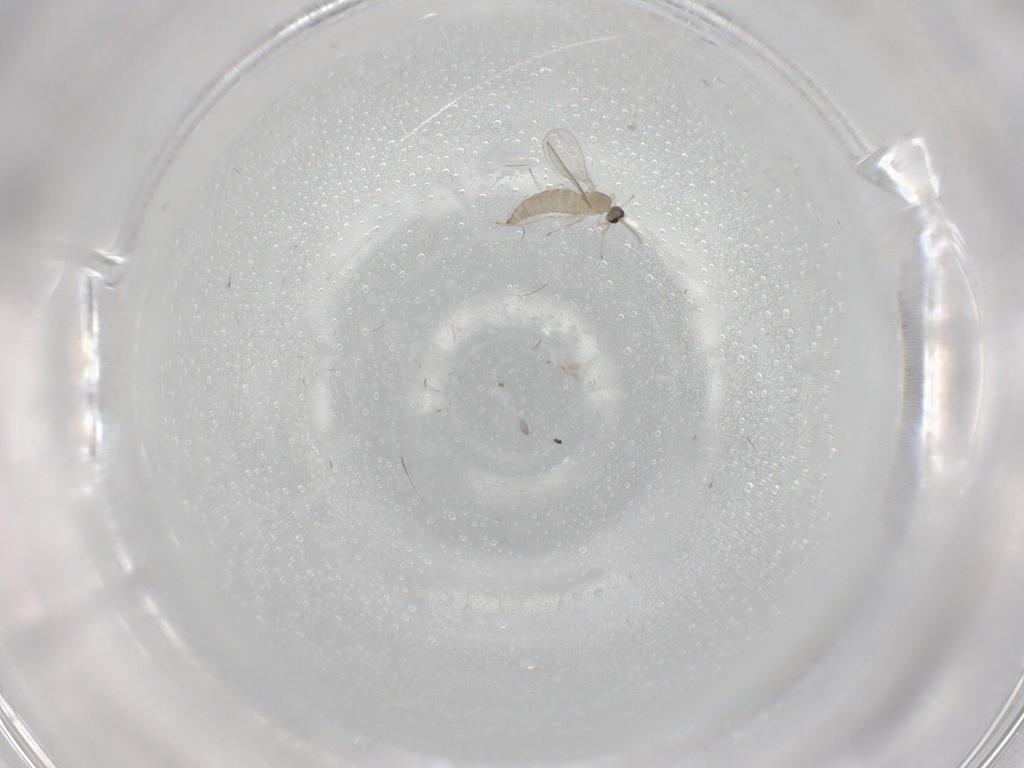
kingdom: Animalia
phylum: Arthropoda
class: Insecta
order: Diptera
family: Cecidomyiidae
